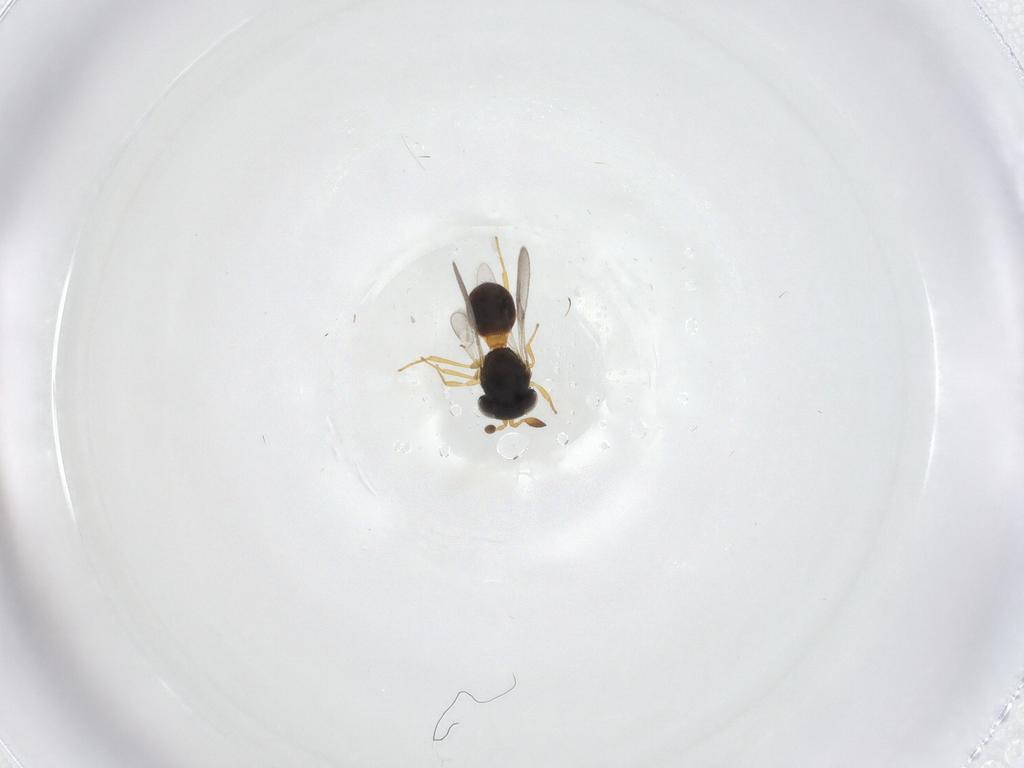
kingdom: Animalia
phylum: Arthropoda
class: Insecta
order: Hymenoptera
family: Scelionidae
